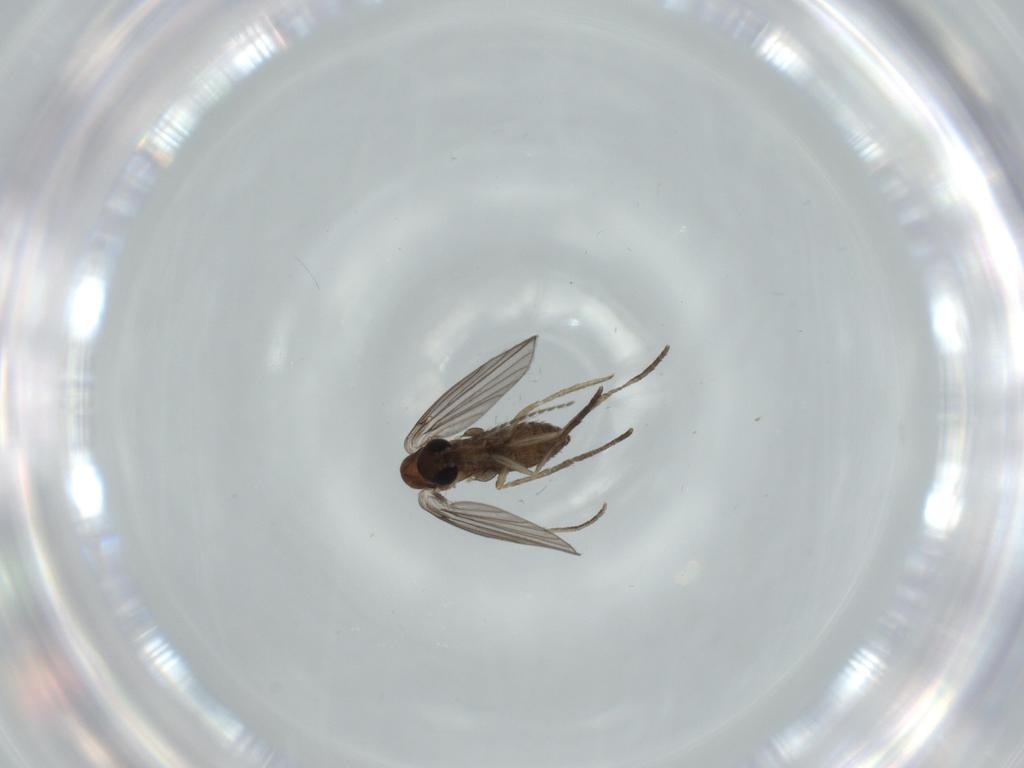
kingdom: Animalia
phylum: Arthropoda
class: Insecta
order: Diptera
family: Psychodidae
